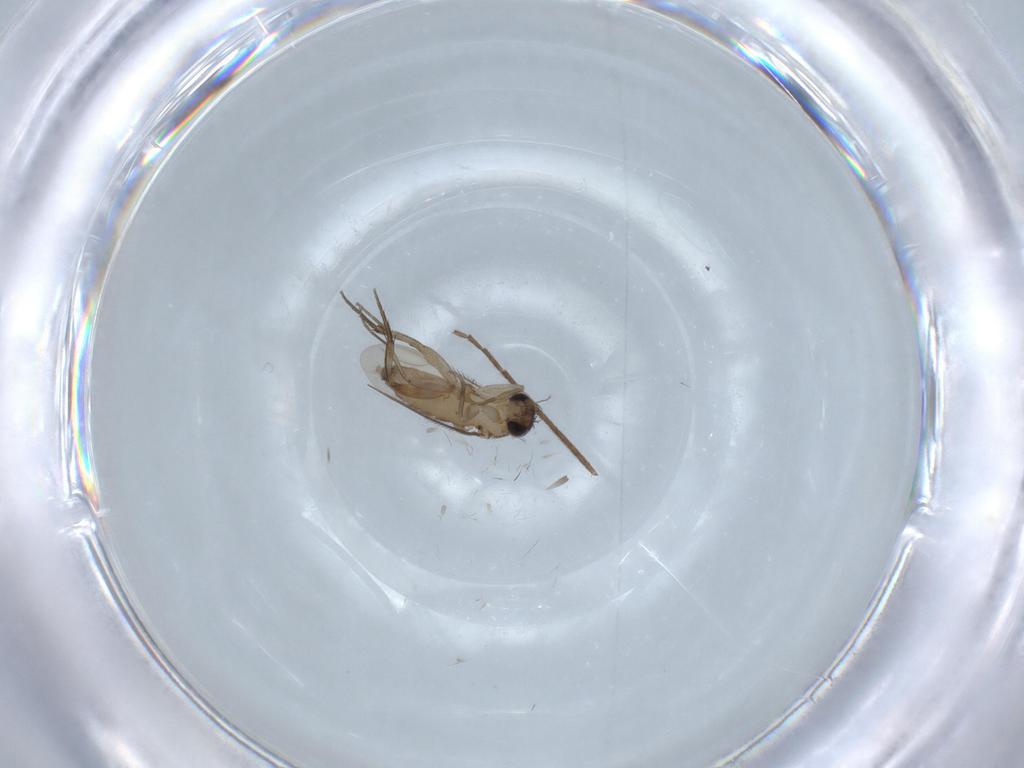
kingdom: Animalia
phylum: Arthropoda
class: Insecta
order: Diptera
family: Phoridae
